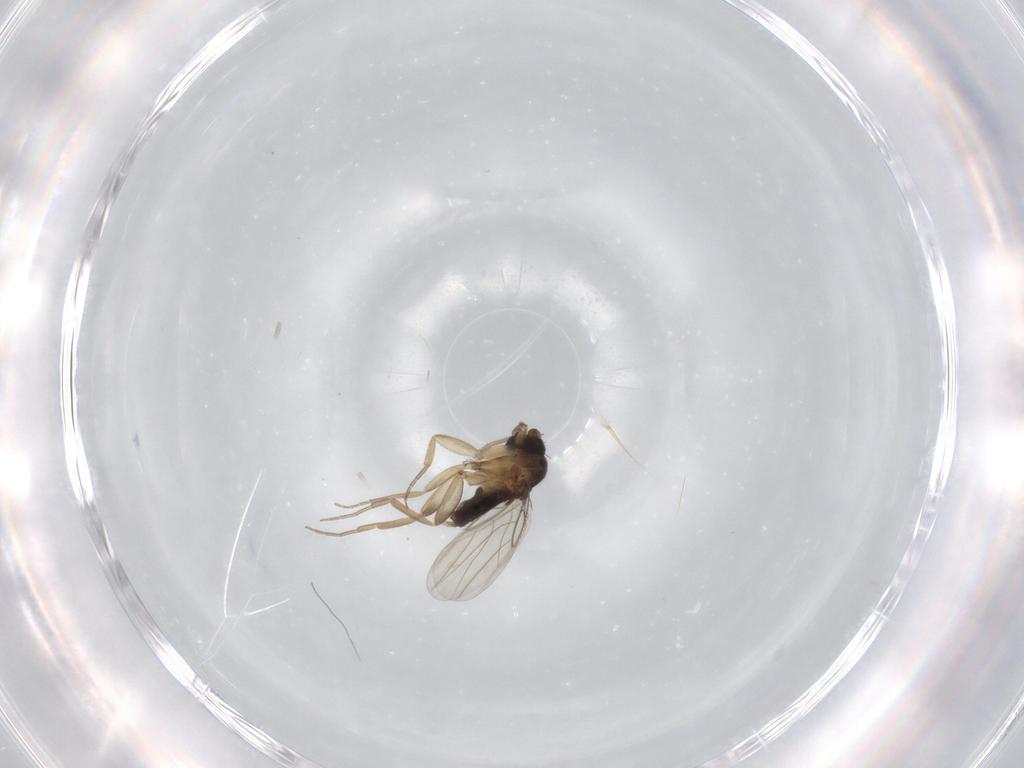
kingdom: Animalia
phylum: Arthropoda
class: Insecta
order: Diptera
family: Phoridae
